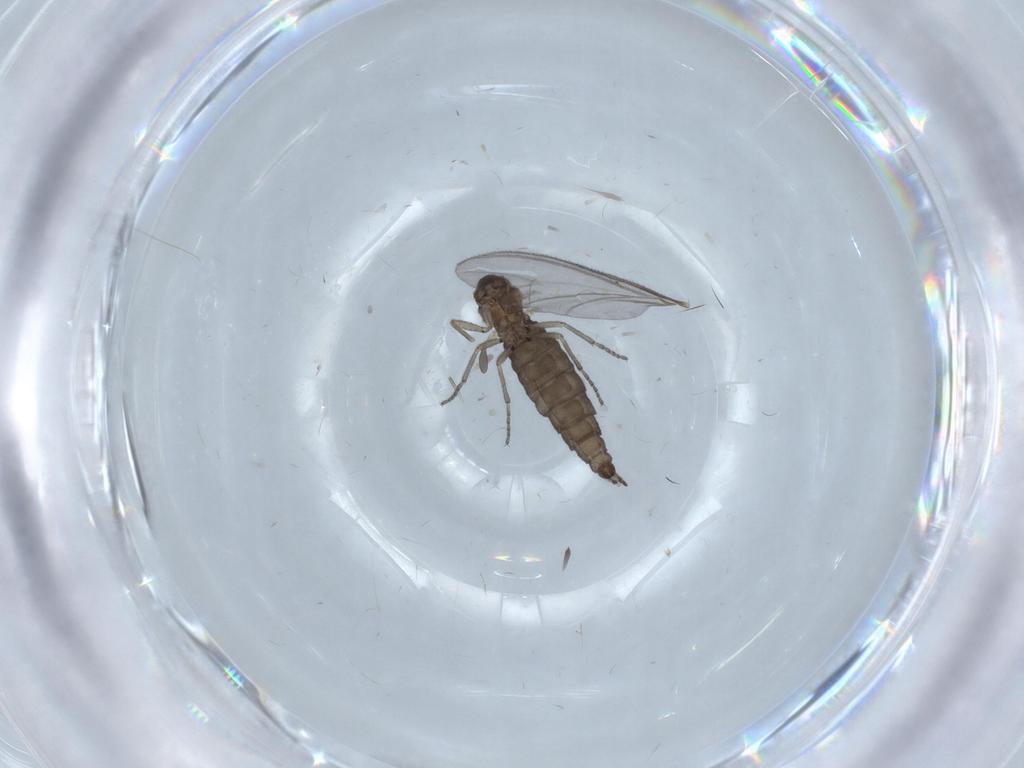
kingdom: Animalia
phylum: Arthropoda
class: Insecta
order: Diptera
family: Sciaridae
